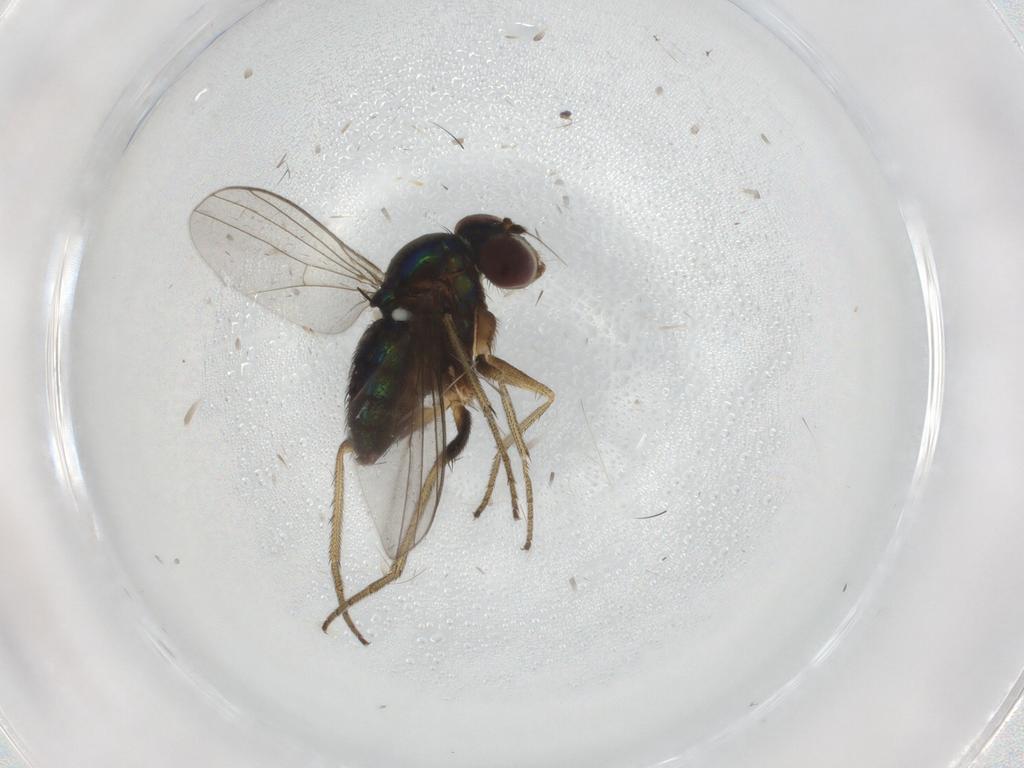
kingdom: Animalia
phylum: Arthropoda
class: Insecta
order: Diptera
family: Dolichopodidae
